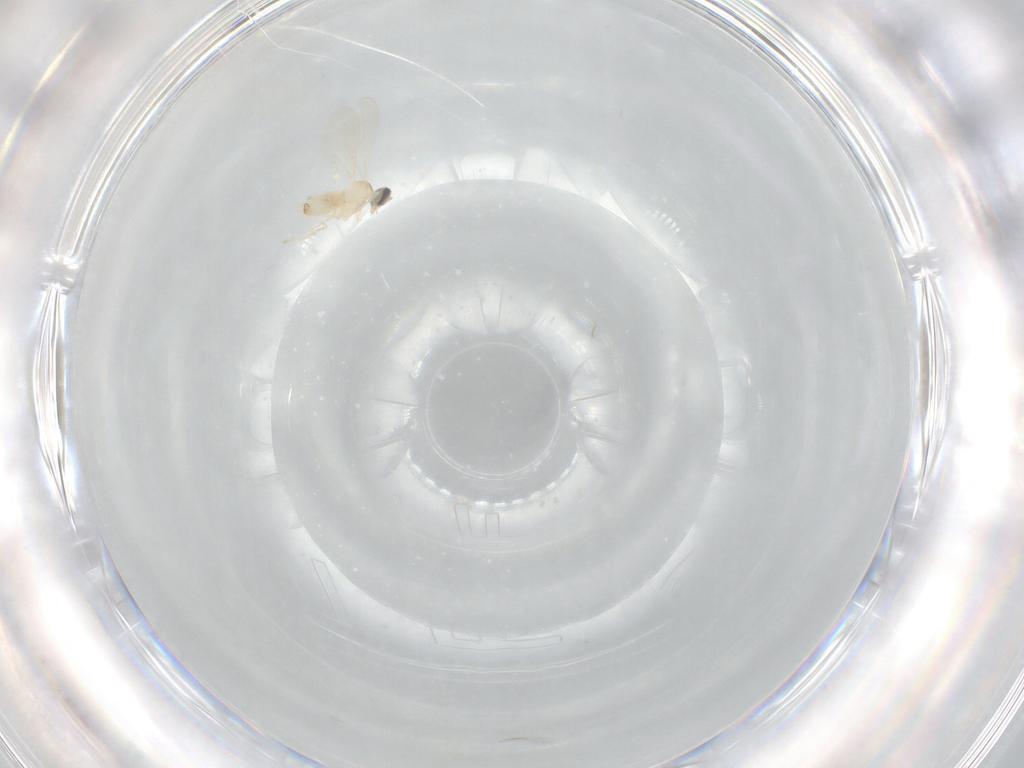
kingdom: Animalia
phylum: Arthropoda
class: Insecta
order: Diptera
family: Cecidomyiidae
